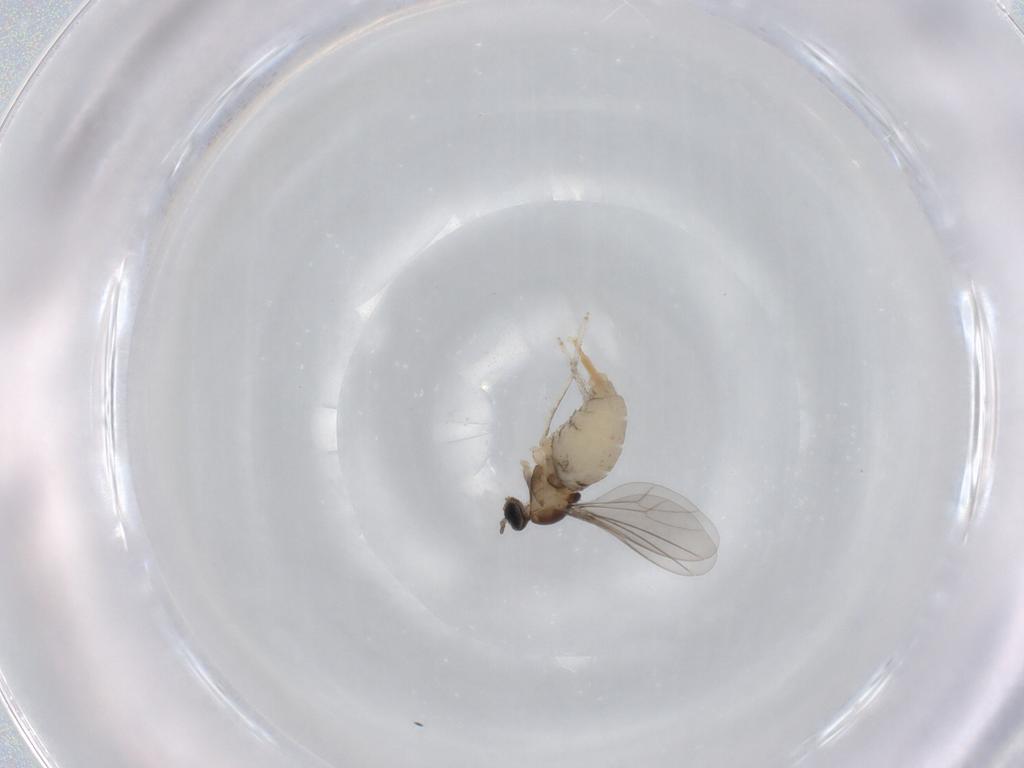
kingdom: Animalia
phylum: Arthropoda
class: Insecta
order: Diptera
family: Cecidomyiidae
